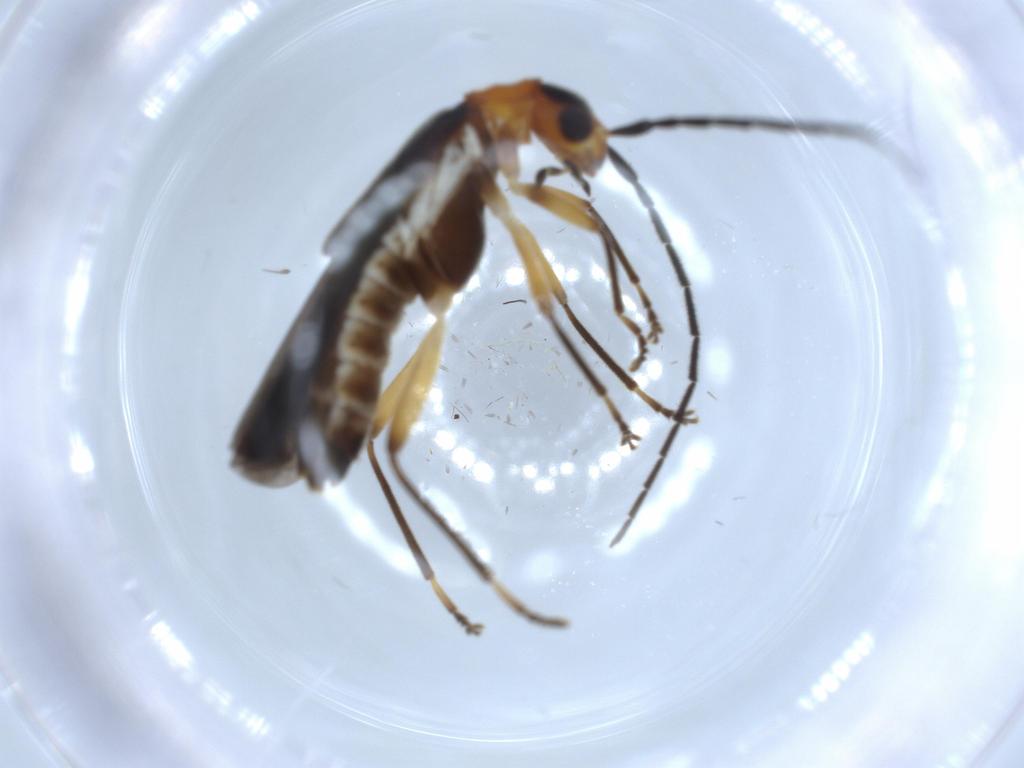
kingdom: Animalia
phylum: Arthropoda
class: Insecta
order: Coleoptera
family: Cantharidae
